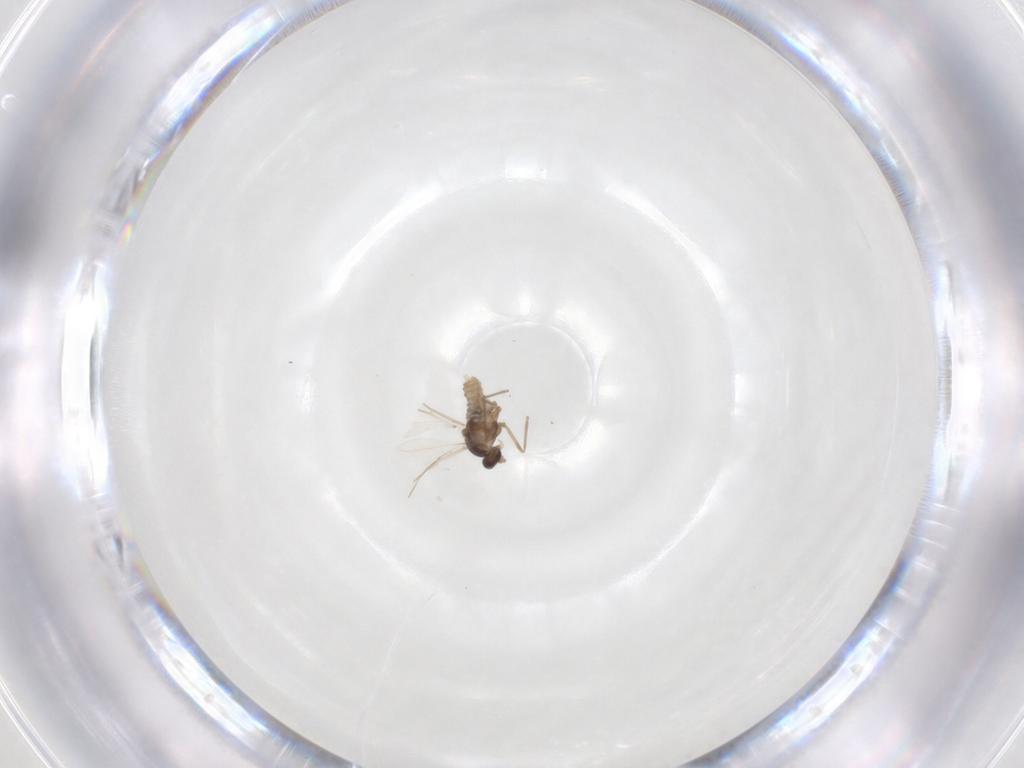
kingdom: Animalia
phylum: Arthropoda
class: Insecta
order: Diptera
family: Cecidomyiidae
